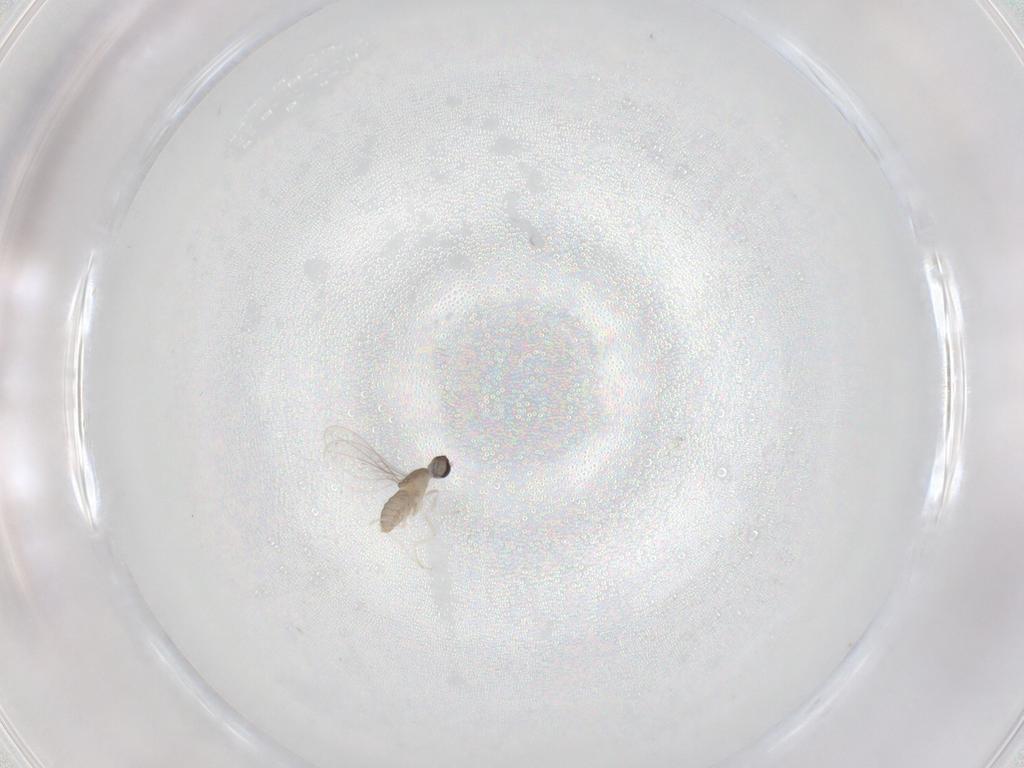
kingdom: Animalia
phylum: Arthropoda
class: Insecta
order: Diptera
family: Cecidomyiidae
